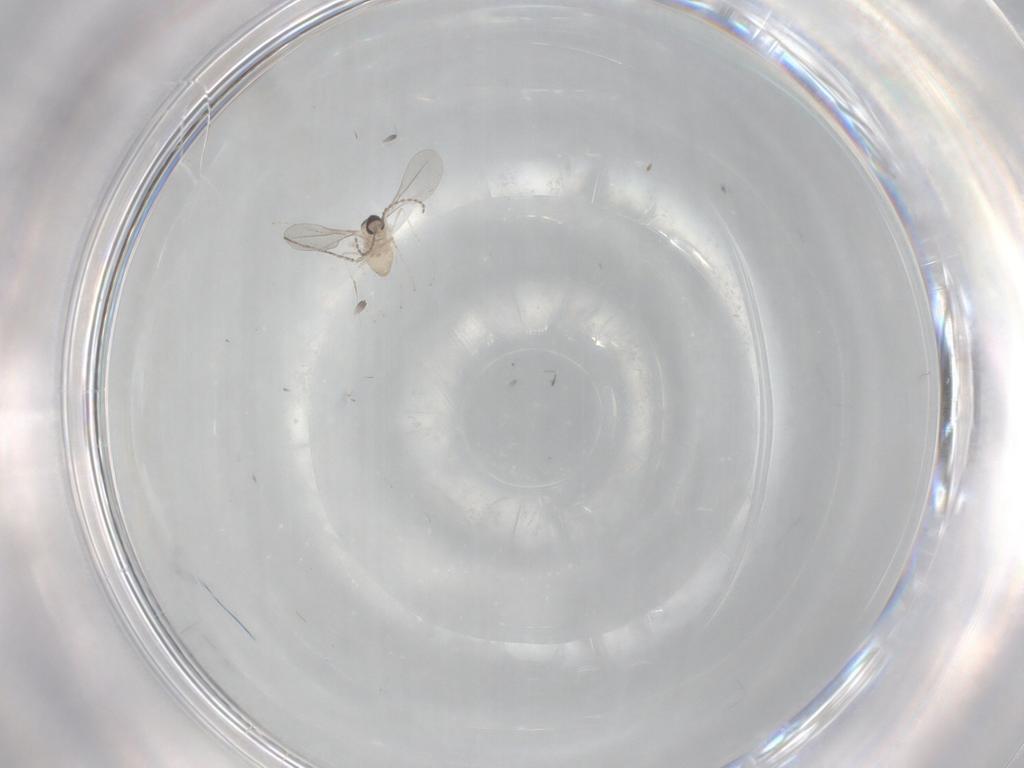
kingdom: Animalia
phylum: Arthropoda
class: Insecta
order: Diptera
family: Cecidomyiidae
